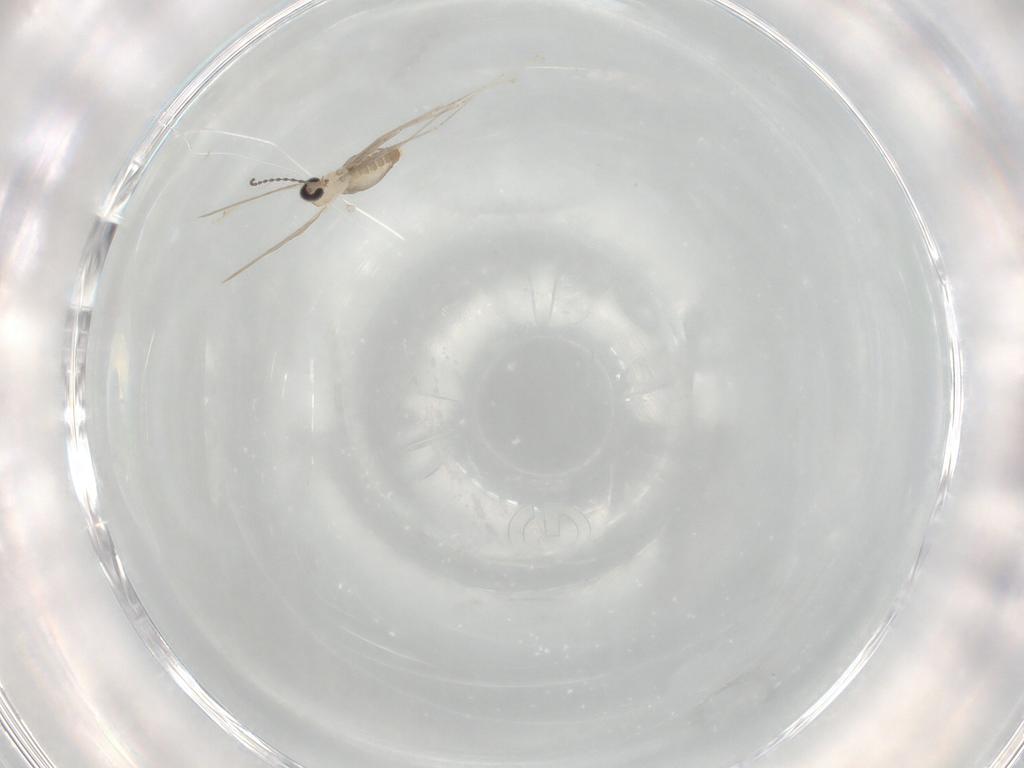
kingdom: Animalia
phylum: Arthropoda
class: Insecta
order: Diptera
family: Cecidomyiidae
